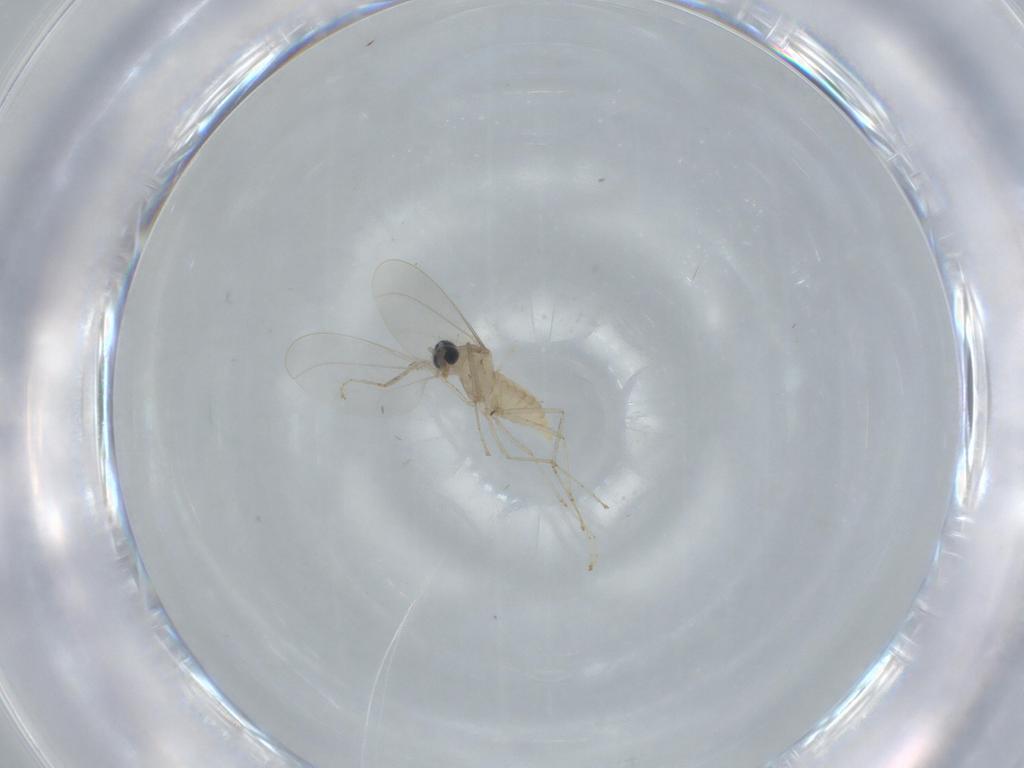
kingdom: Animalia
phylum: Arthropoda
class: Insecta
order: Diptera
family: Cecidomyiidae
